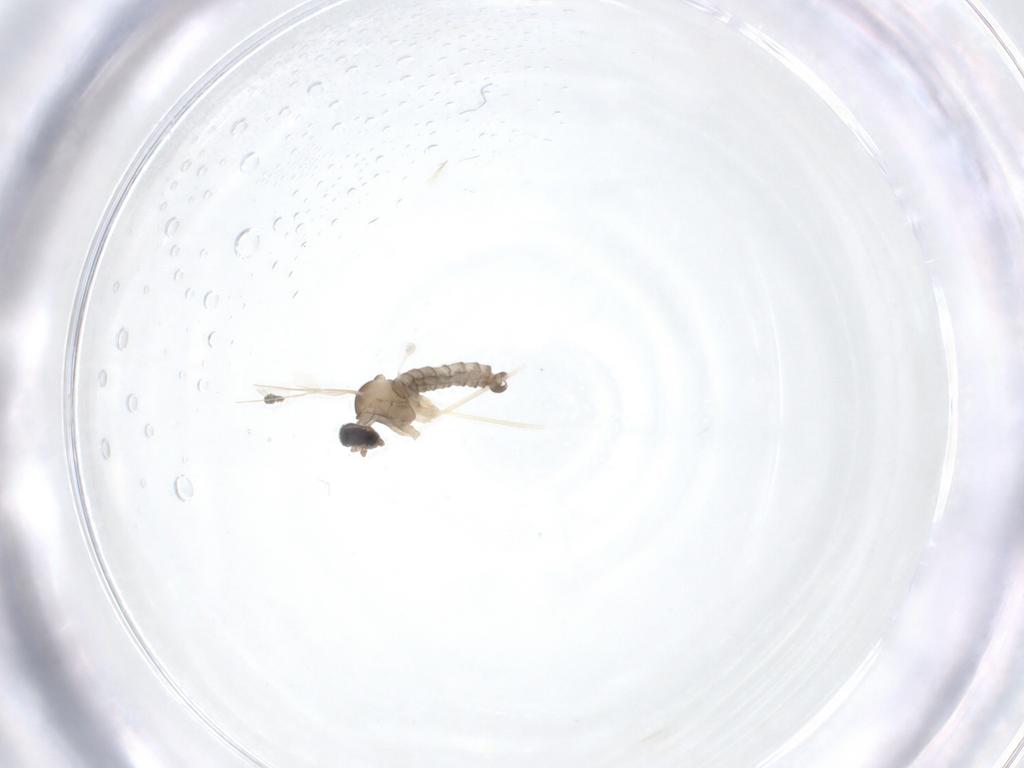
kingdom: Animalia
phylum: Arthropoda
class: Insecta
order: Diptera
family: Cecidomyiidae
